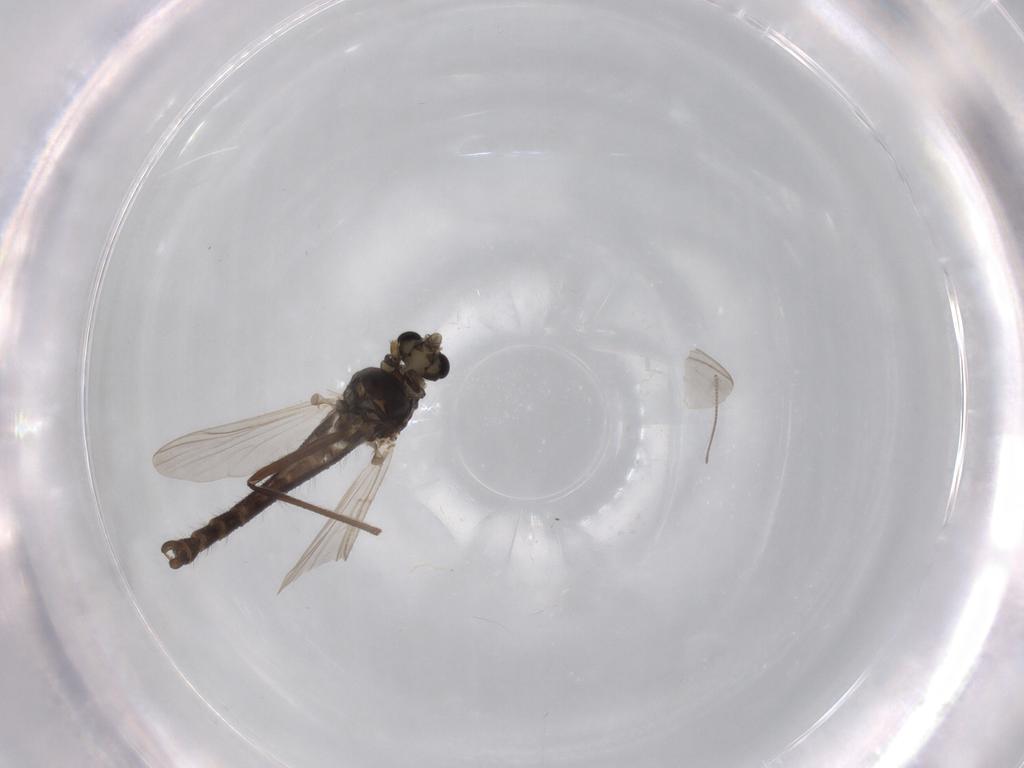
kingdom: Animalia
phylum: Arthropoda
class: Insecta
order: Diptera
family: Chironomidae
